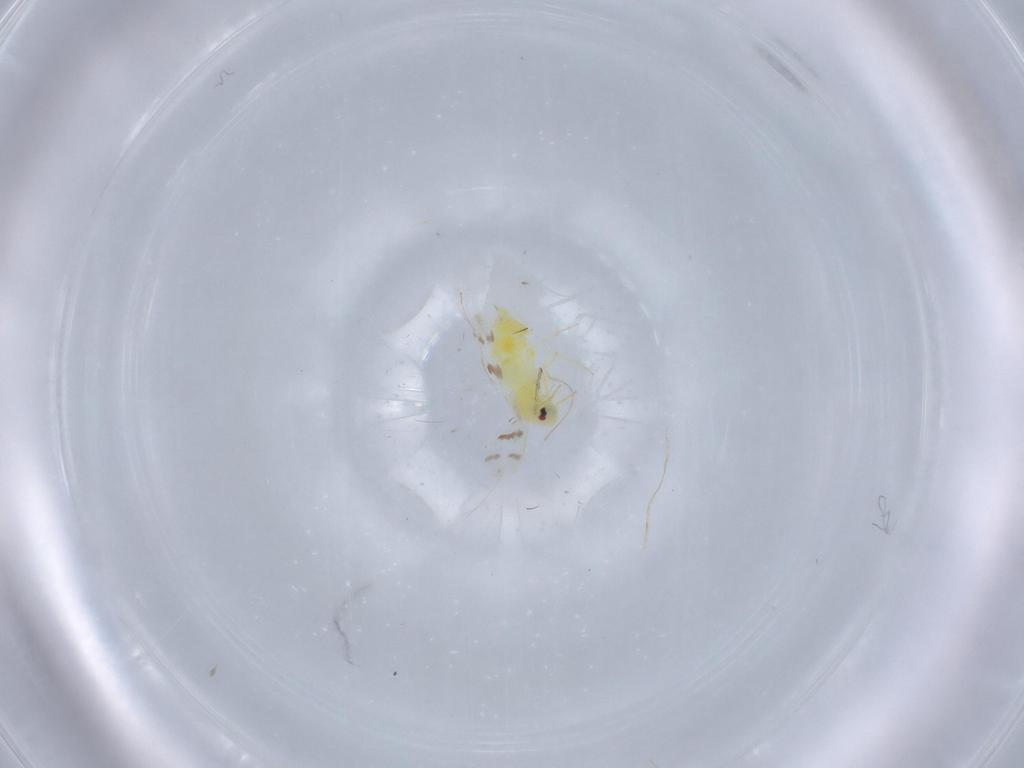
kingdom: Animalia
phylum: Arthropoda
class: Insecta
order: Hemiptera
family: Aleyrodidae
